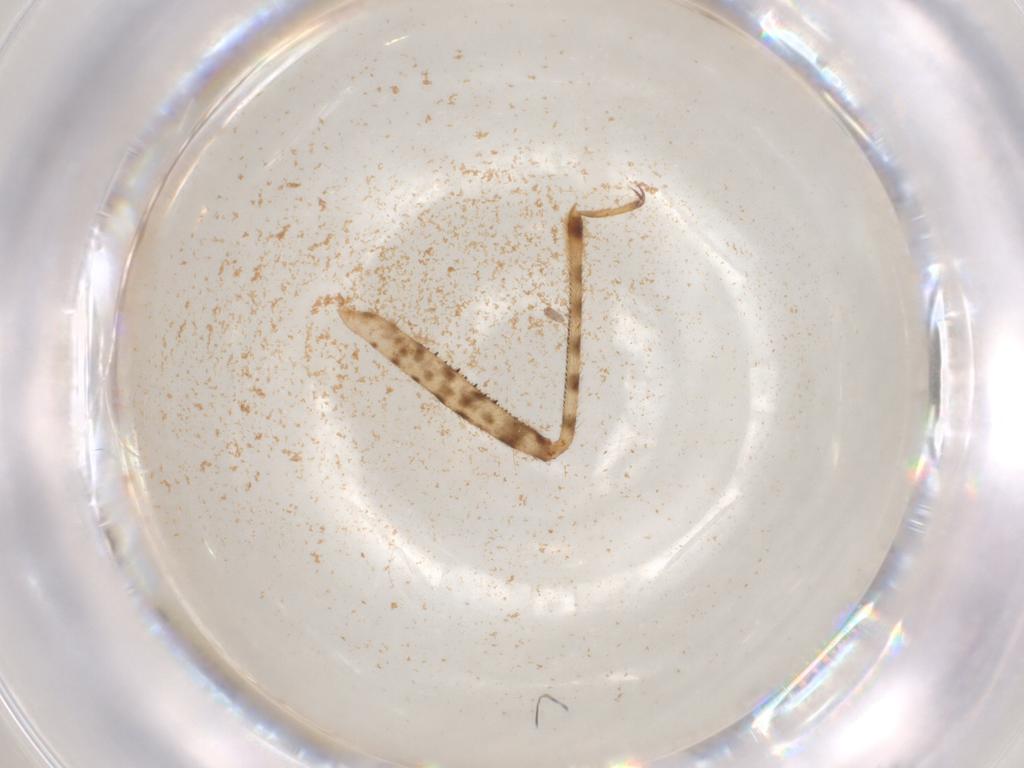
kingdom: Animalia
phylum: Arthropoda
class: Insecta
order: Hemiptera
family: Nabidae
